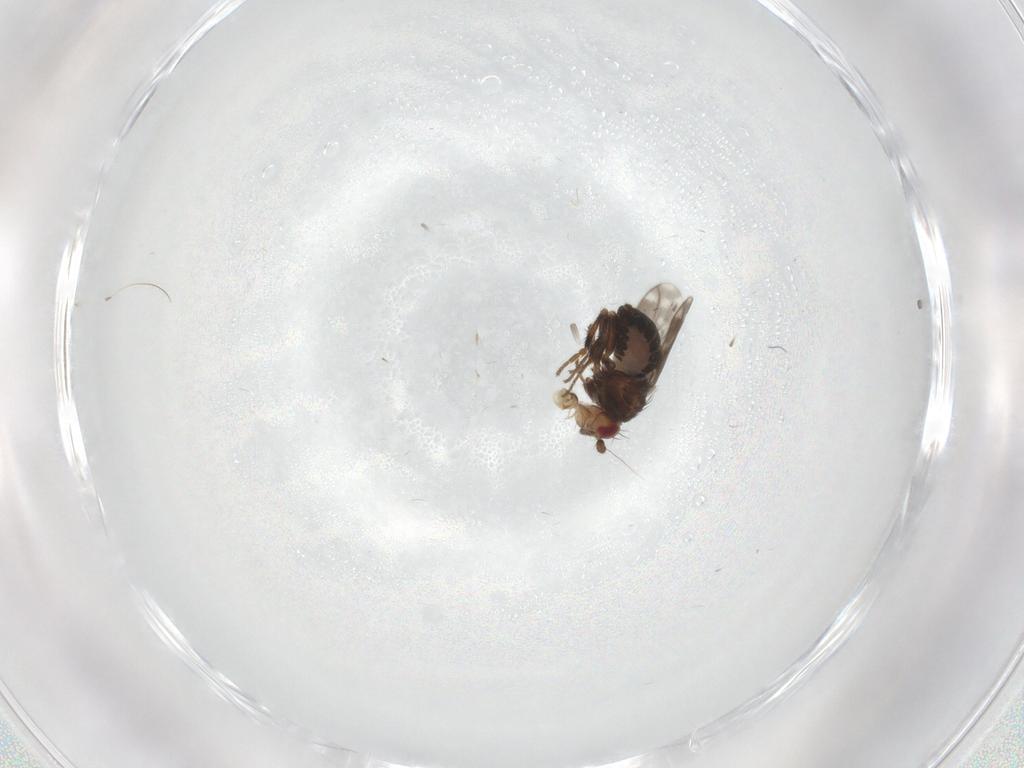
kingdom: Animalia
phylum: Arthropoda
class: Insecta
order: Diptera
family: Sphaeroceridae
